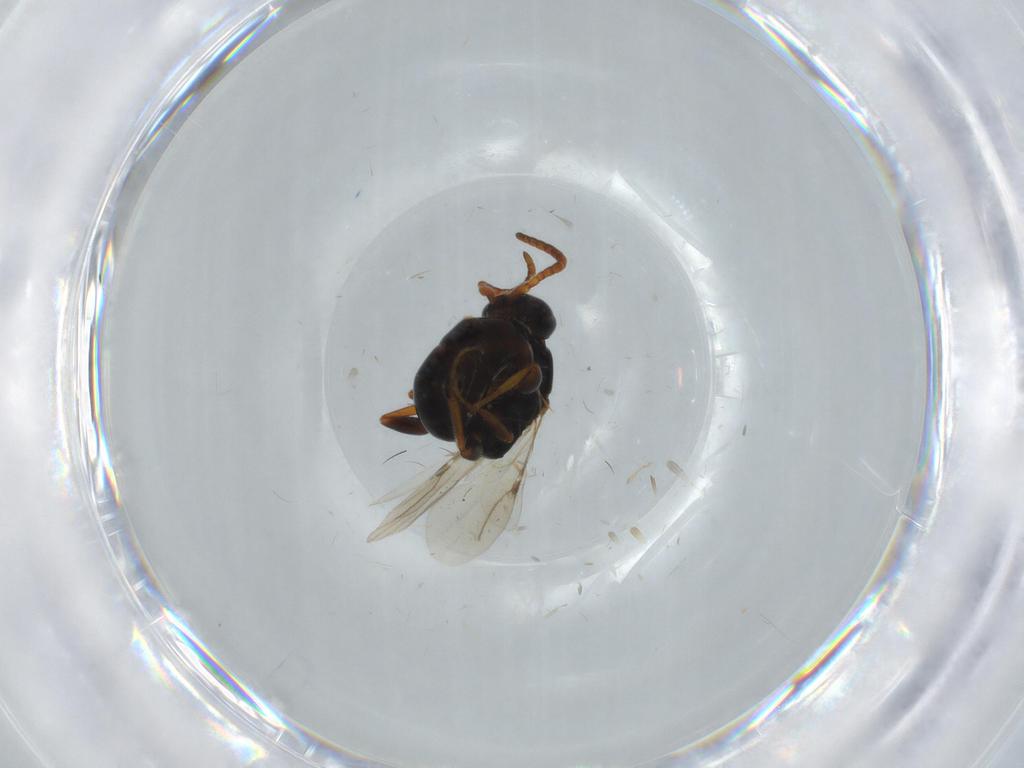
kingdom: Animalia
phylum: Arthropoda
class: Insecta
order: Hymenoptera
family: Bethylidae
